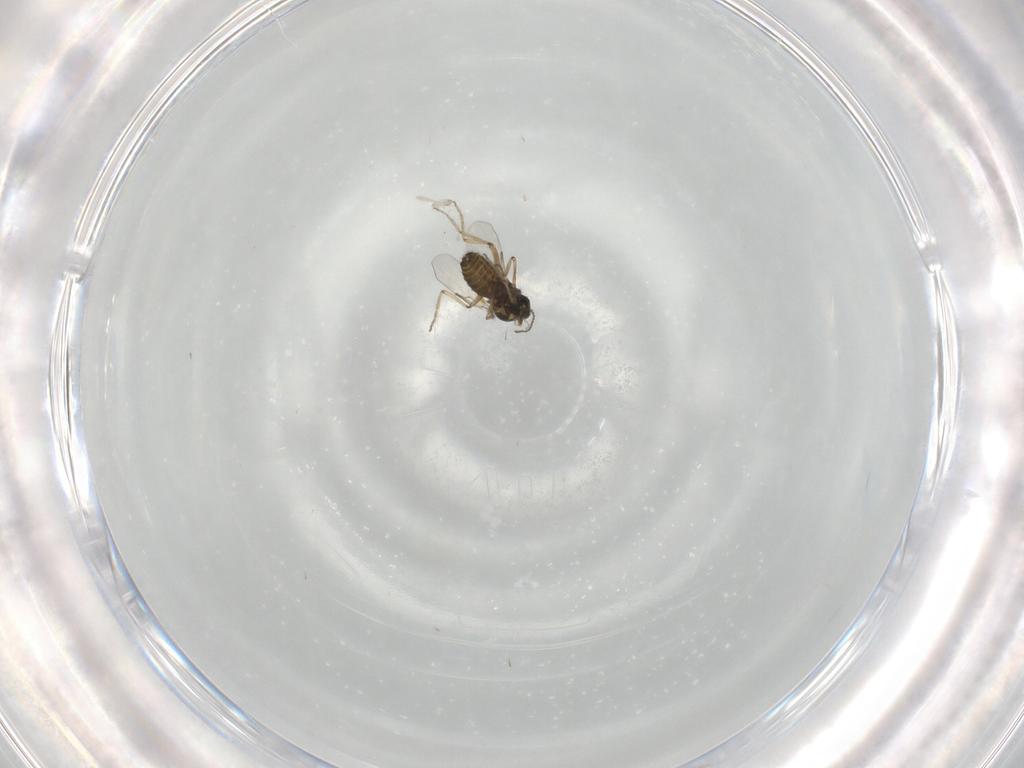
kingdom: Animalia
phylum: Arthropoda
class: Insecta
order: Diptera
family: Ceratopogonidae
